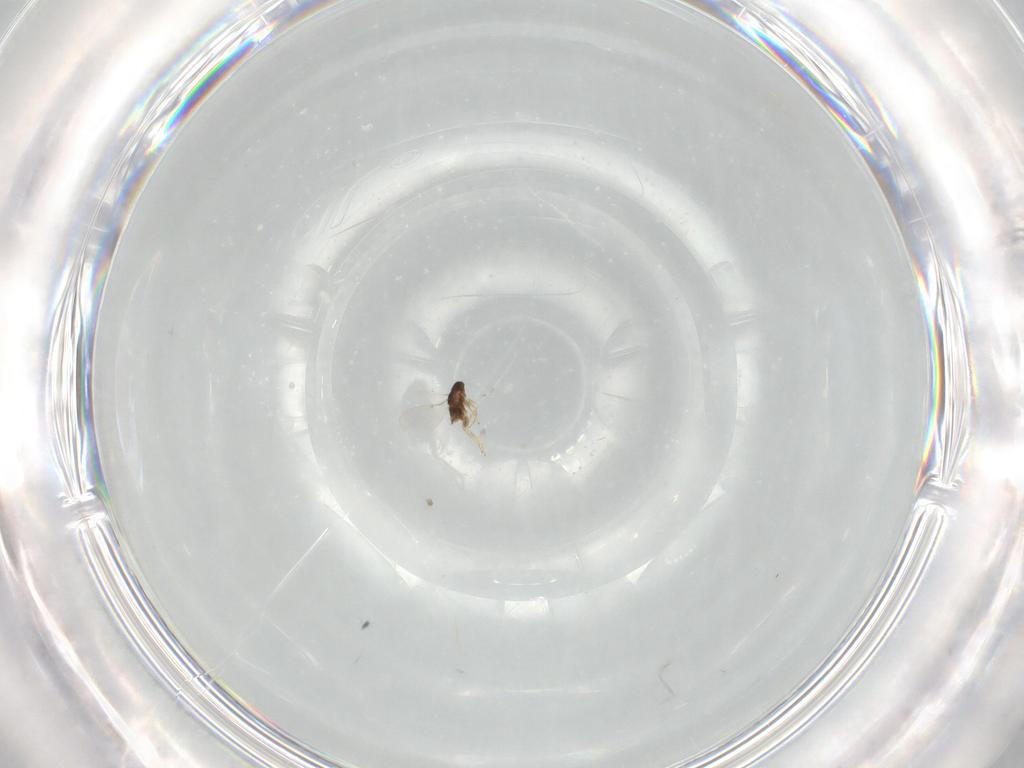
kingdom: Animalia
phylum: Arthropoda
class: Insecta
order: Hymenoptera
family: Encyrtidae
